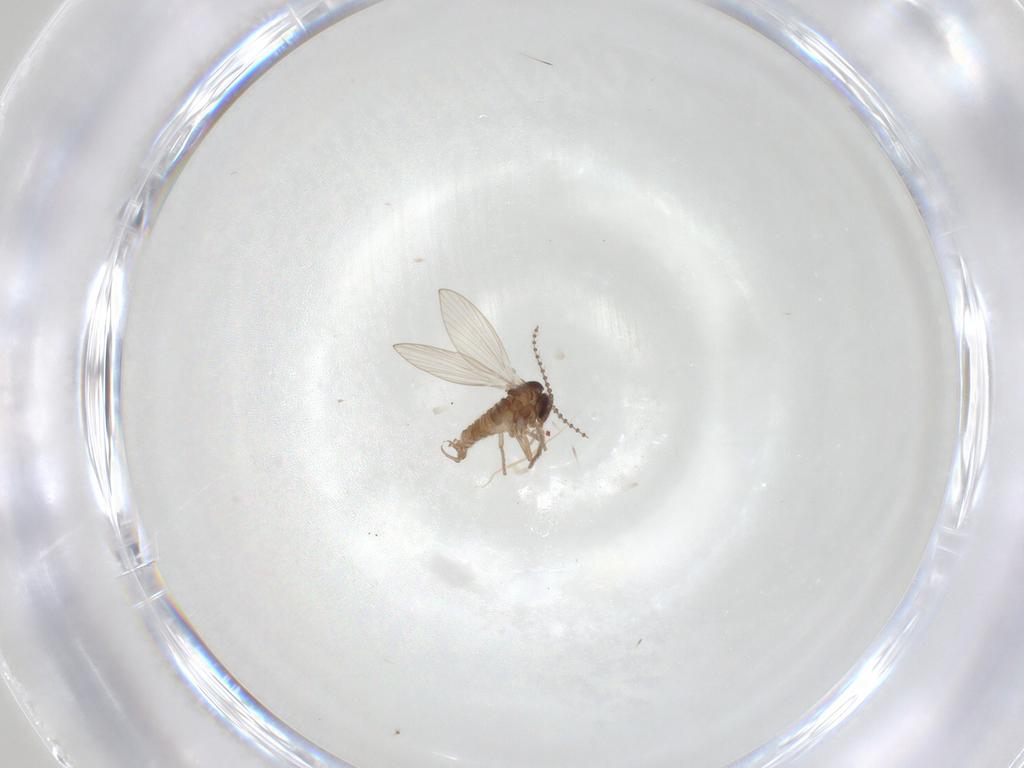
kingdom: Animalia
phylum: Arthropoda
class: Insecta
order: Diptera
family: Psychodidae
